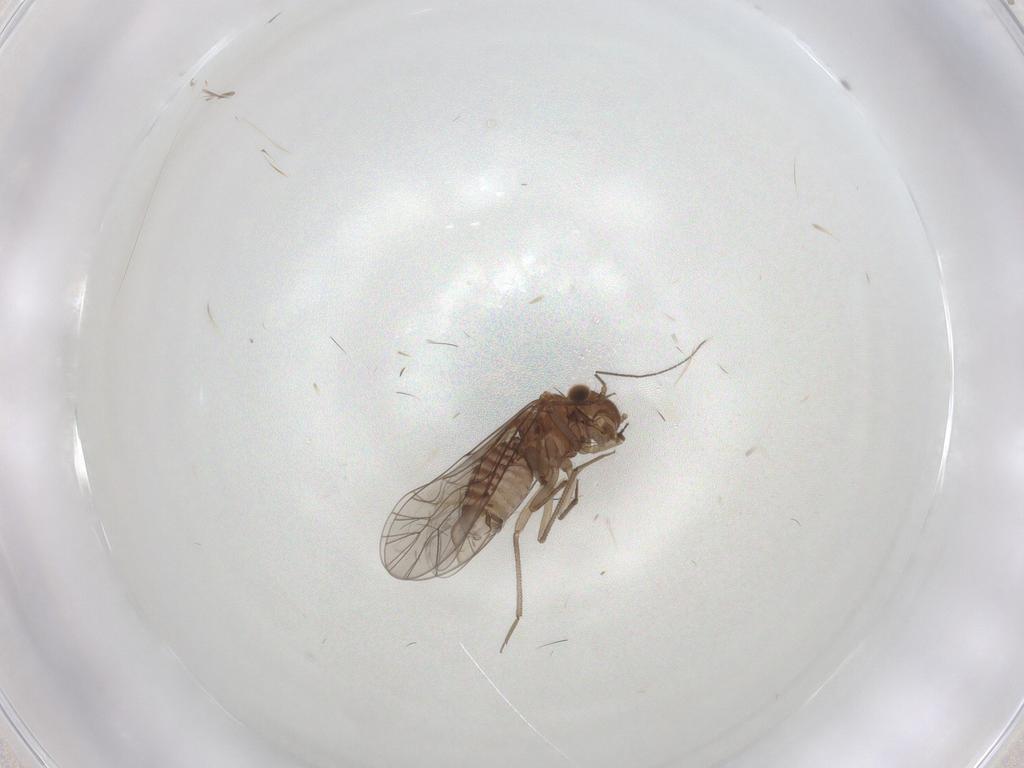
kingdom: Animalia
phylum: Arthropoda
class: Insecta
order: Psocodea
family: Lachesillidae
